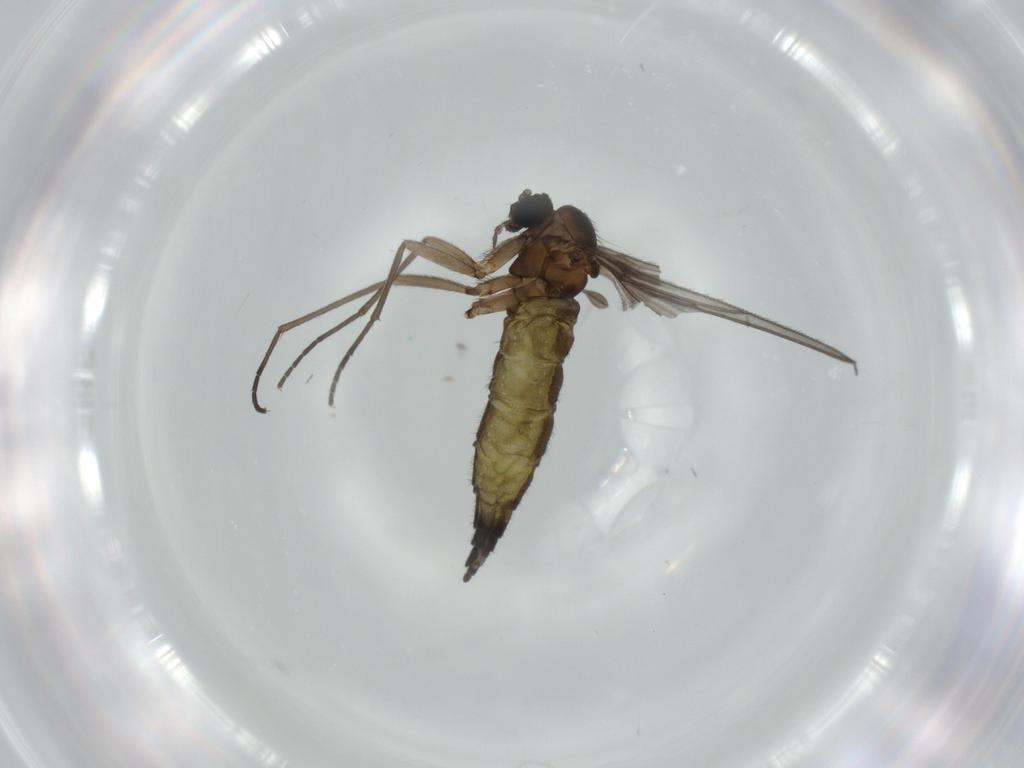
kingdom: Animalia
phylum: Arthropoda
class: Insecta
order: Diptera
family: Sciaridae
